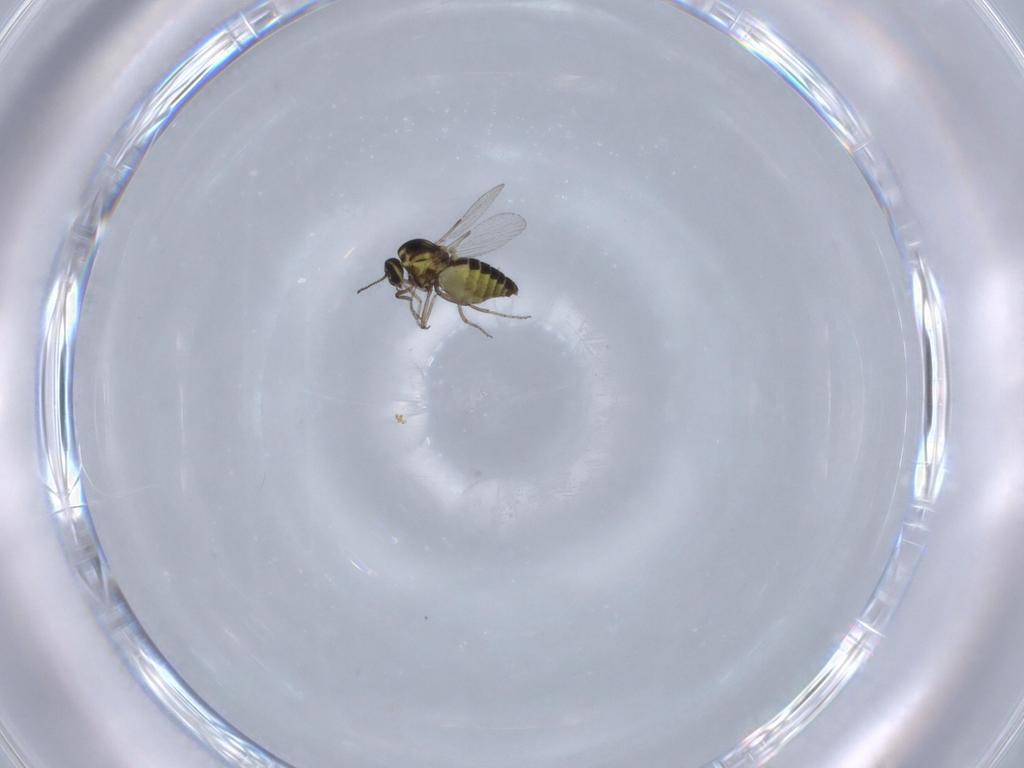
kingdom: Animalia
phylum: Arthropoda
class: Insecta
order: Diptera
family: Ceratopogonidae
